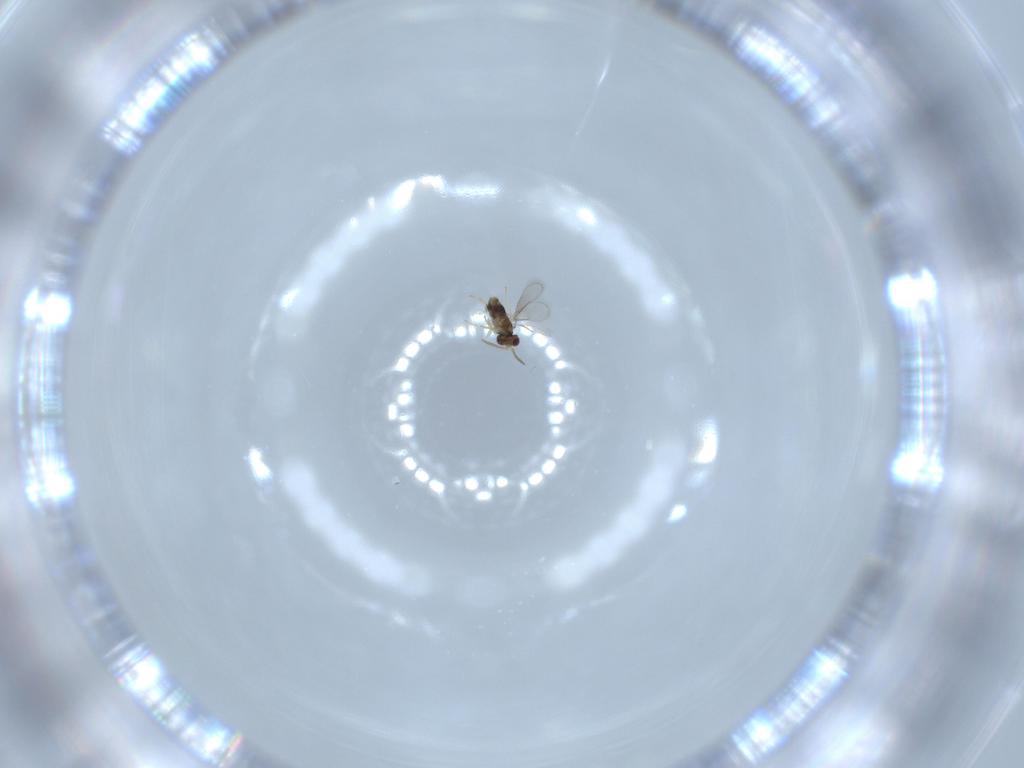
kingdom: Animalia
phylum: Arthropoda
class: Insecta
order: Hymenoptera
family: Aphelinidae
